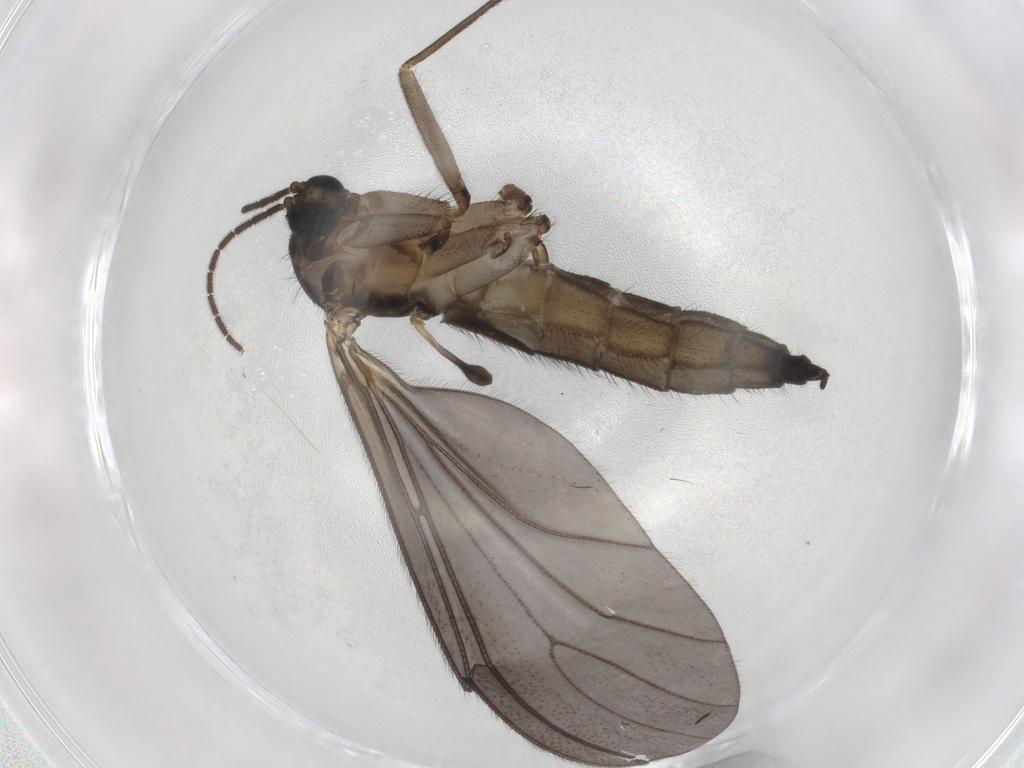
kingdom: Animalia
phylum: Arthropoda
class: Insecta
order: Diptera
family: Sciaridae
